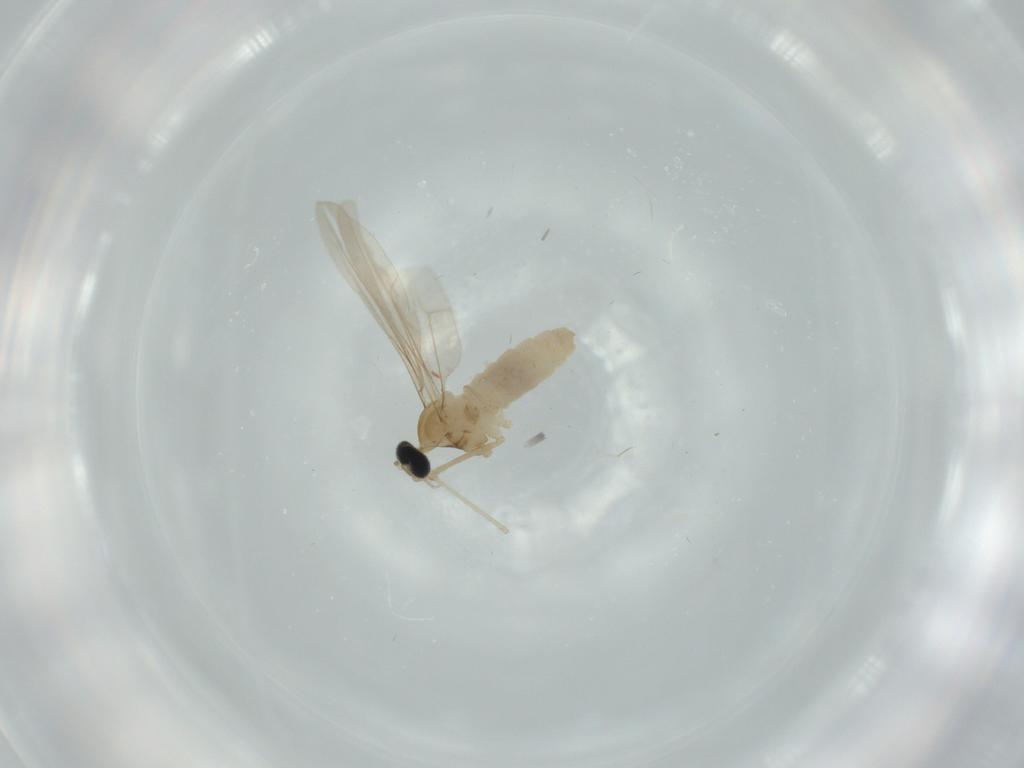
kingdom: Animalia
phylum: Arthropoda
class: Insecta
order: Diptera
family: Cecidomyiidae
